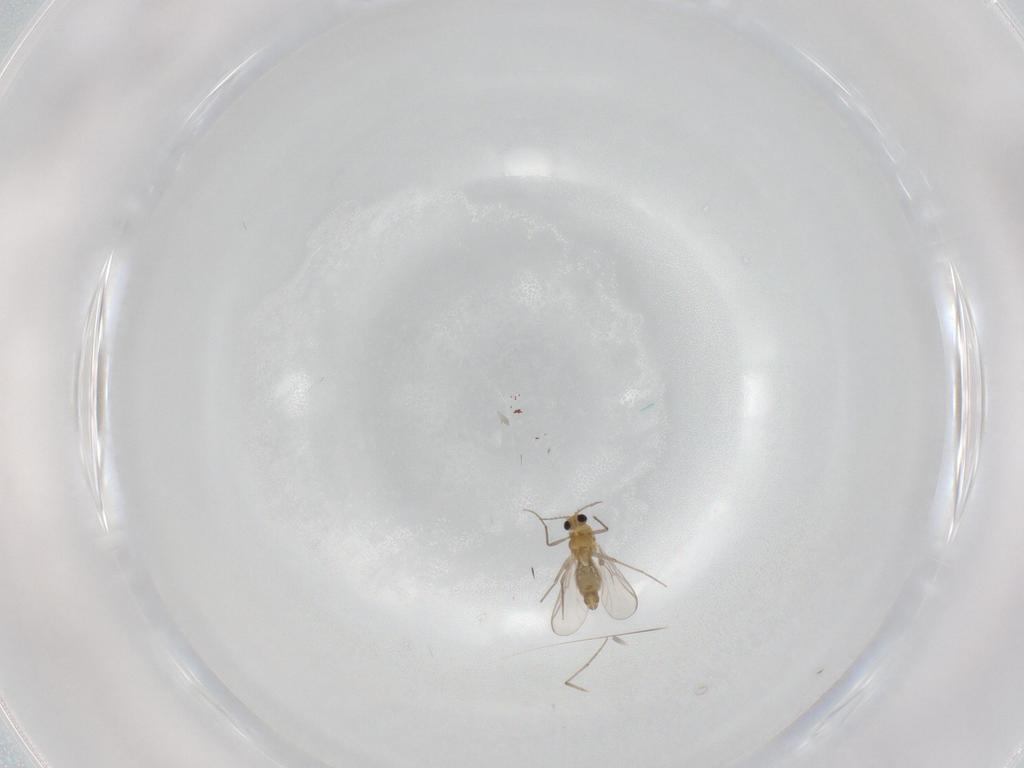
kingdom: Animalia
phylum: Arthropoda
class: Insecta
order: Diptera
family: Chironomidae
